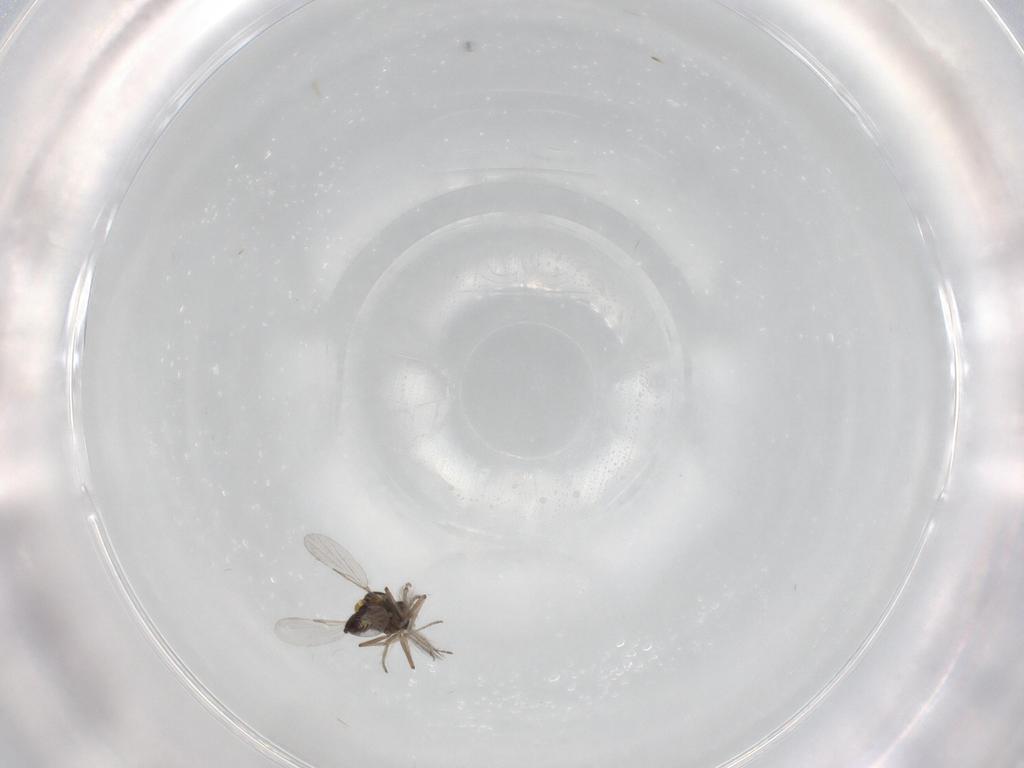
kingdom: Animalia
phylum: Arthropoda
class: Insecta
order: Diptera
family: Ceratopogonidae
